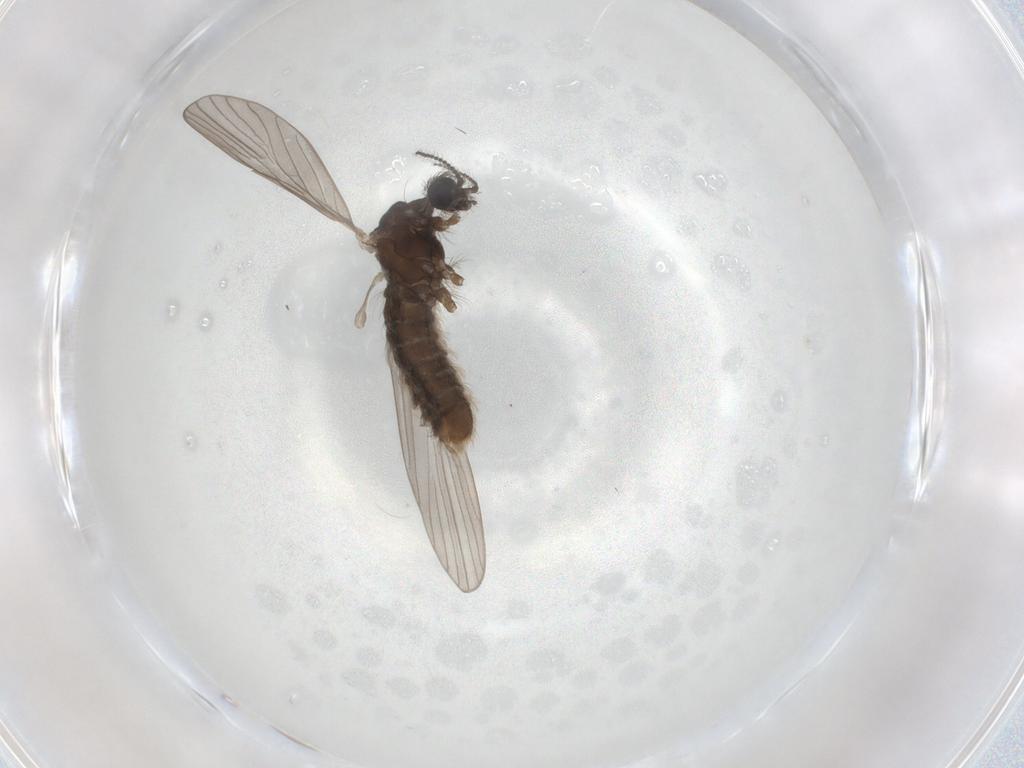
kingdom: Animalia
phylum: Arthropoda
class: Insecta
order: Diptera
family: Limoniidae
